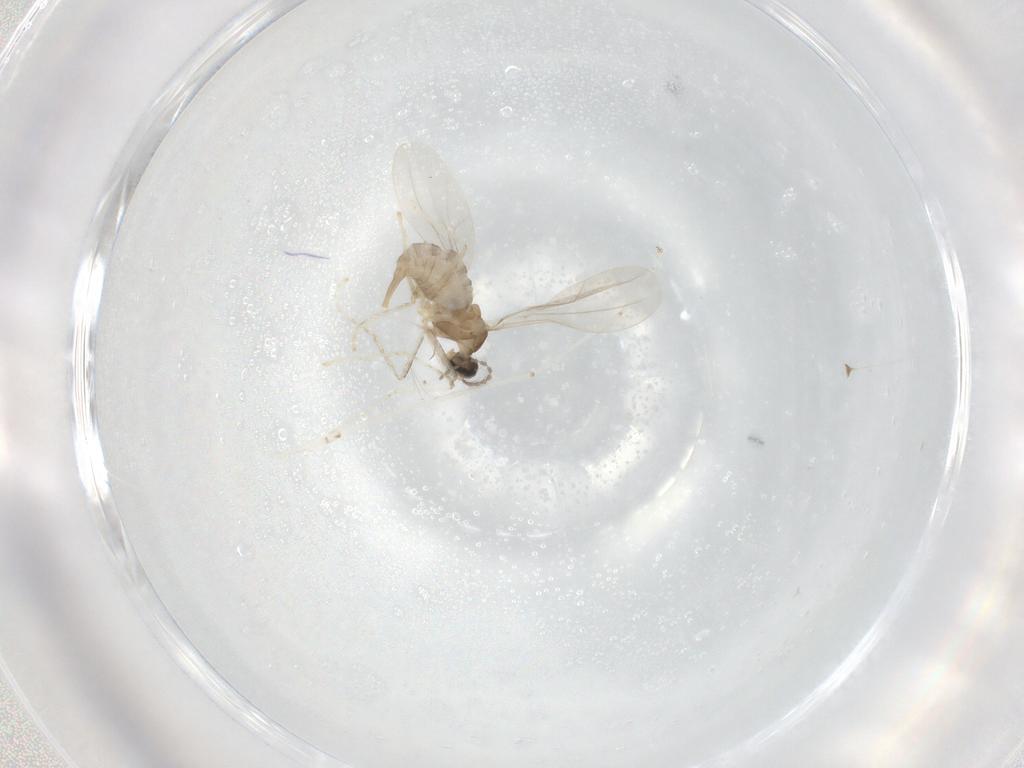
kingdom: Animalia
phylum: Arthropoda
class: Insecta
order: Diptera
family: Cecidomyiidae
